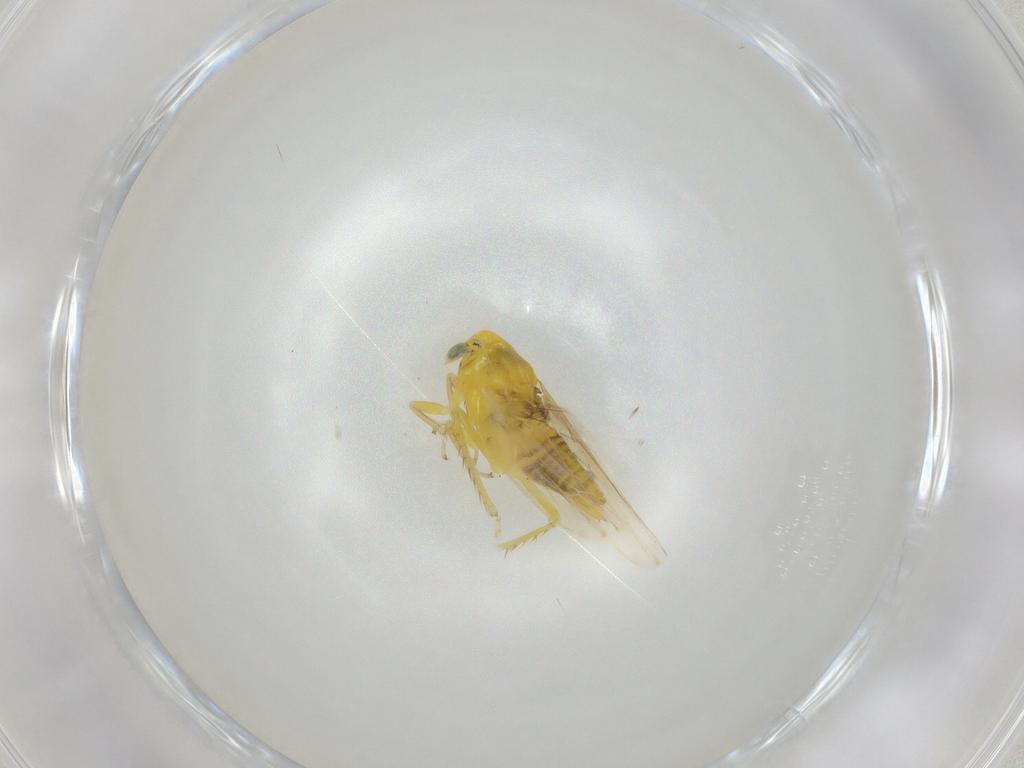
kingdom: Animalia
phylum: Arthropoda
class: Insecta
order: Hemiptera
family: Cicadellidae
